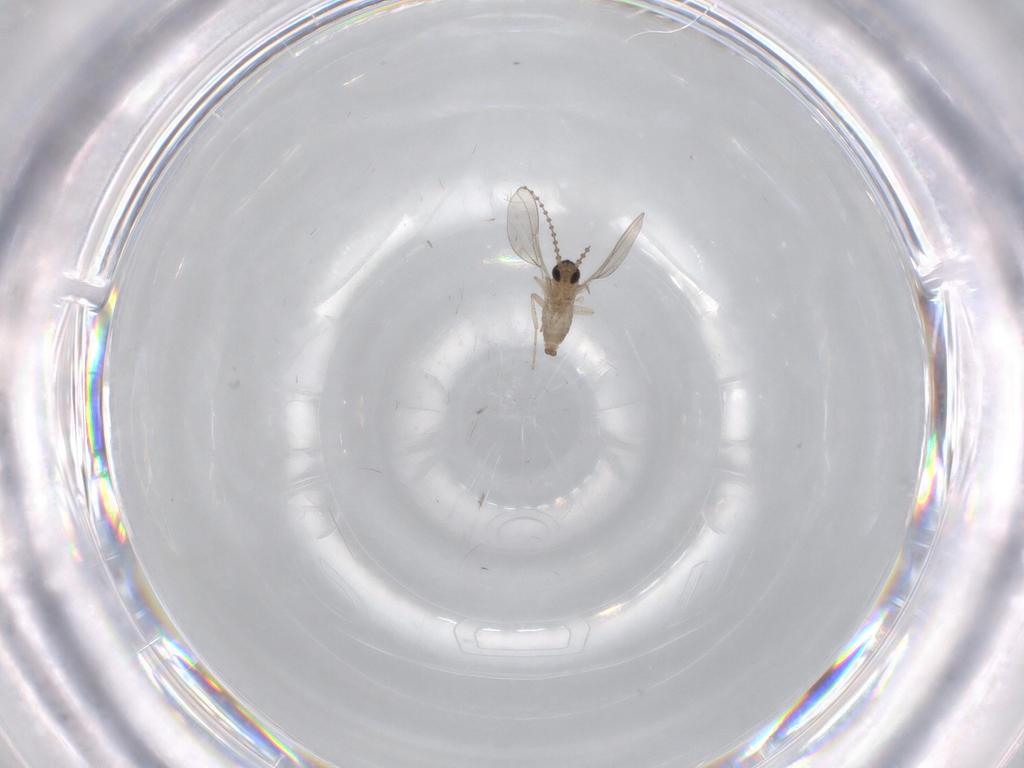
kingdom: Animalia
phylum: Arthropoda
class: Insecta
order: Diptera
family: Cecidomyiidae
